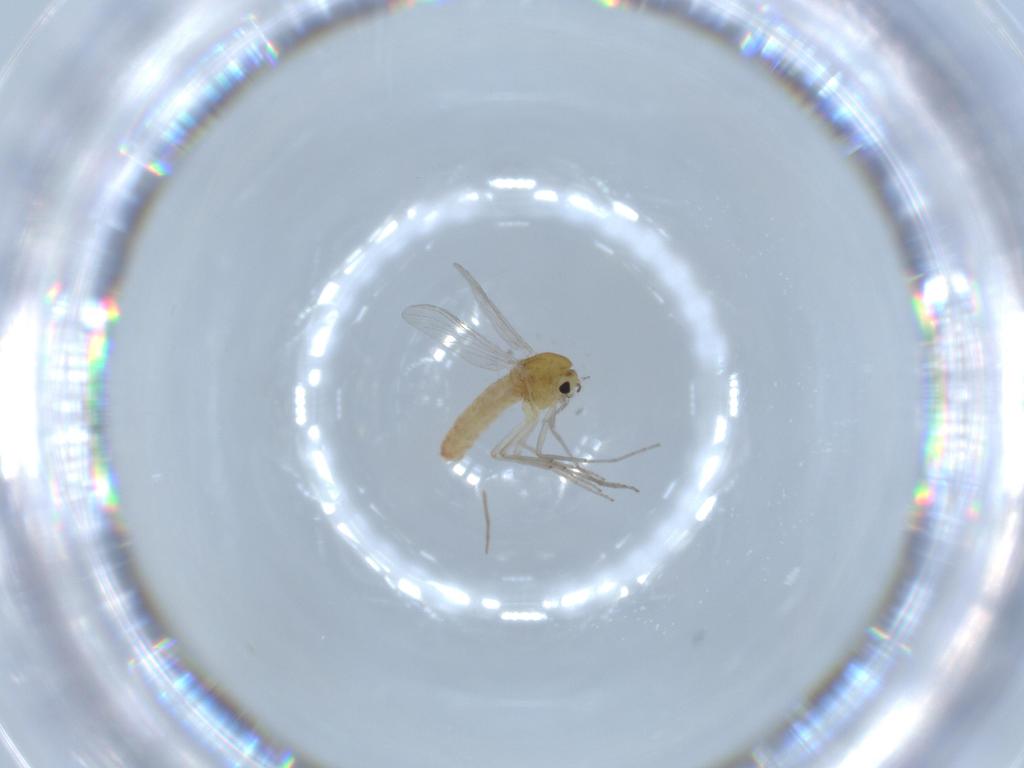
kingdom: Animalia
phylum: Arthropoda
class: Insecta
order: Diptera
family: Chironomidae
